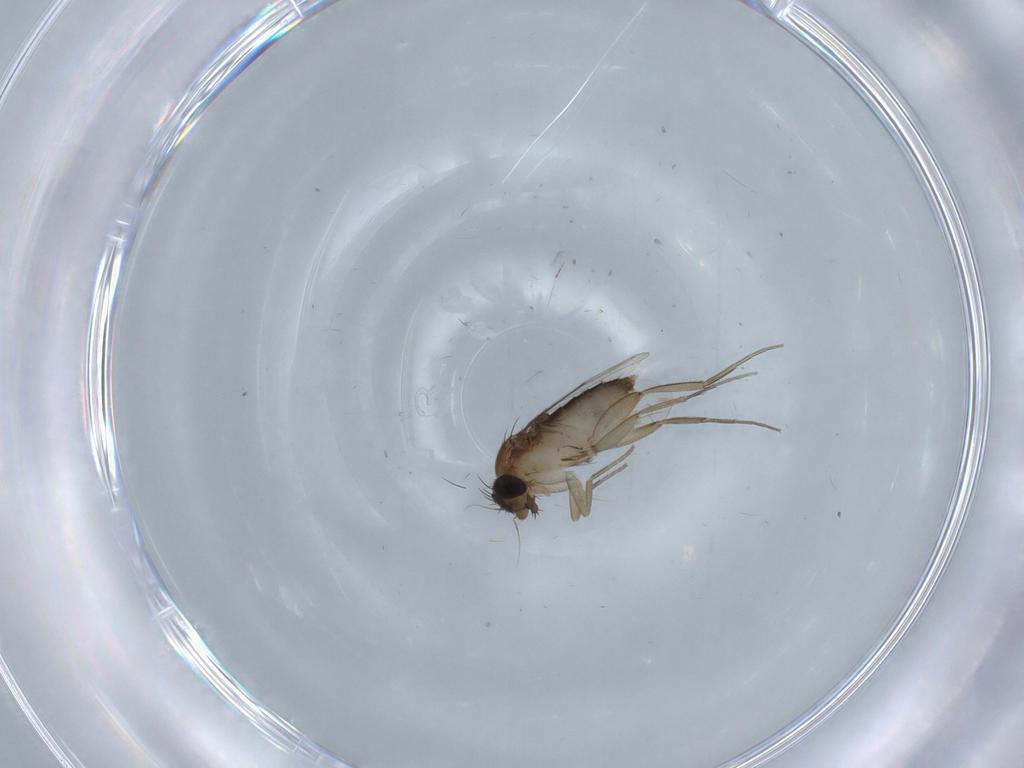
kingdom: Animalia
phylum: Arthropoda
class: Insecta
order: Diptera
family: Phoridae
